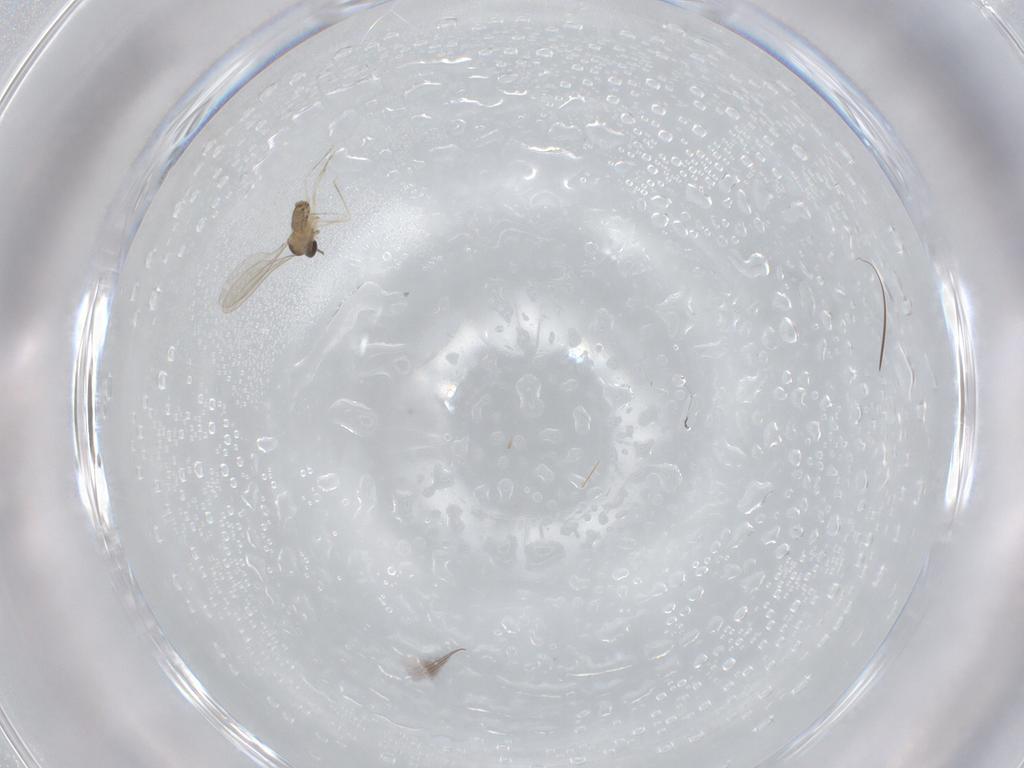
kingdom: Animalia
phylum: Arthropoda
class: Insecta
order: Diptera
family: Cecidomyiidae
